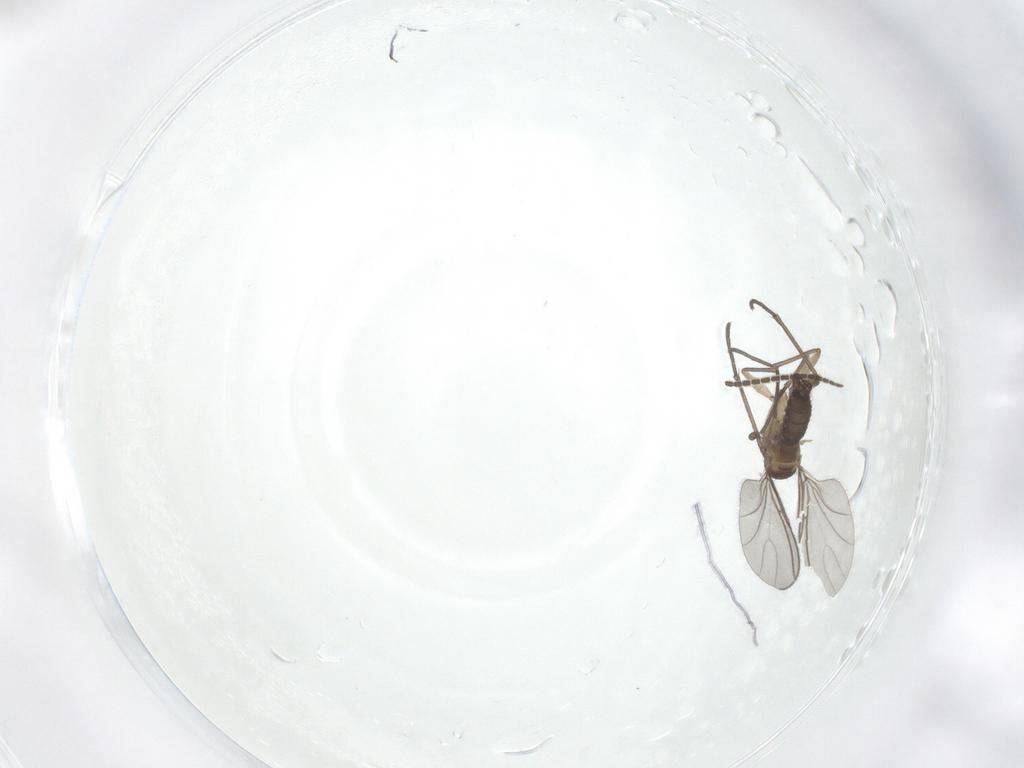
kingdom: Animalia
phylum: Arthropoda
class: Insecta
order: Diptera
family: Sciaridae
